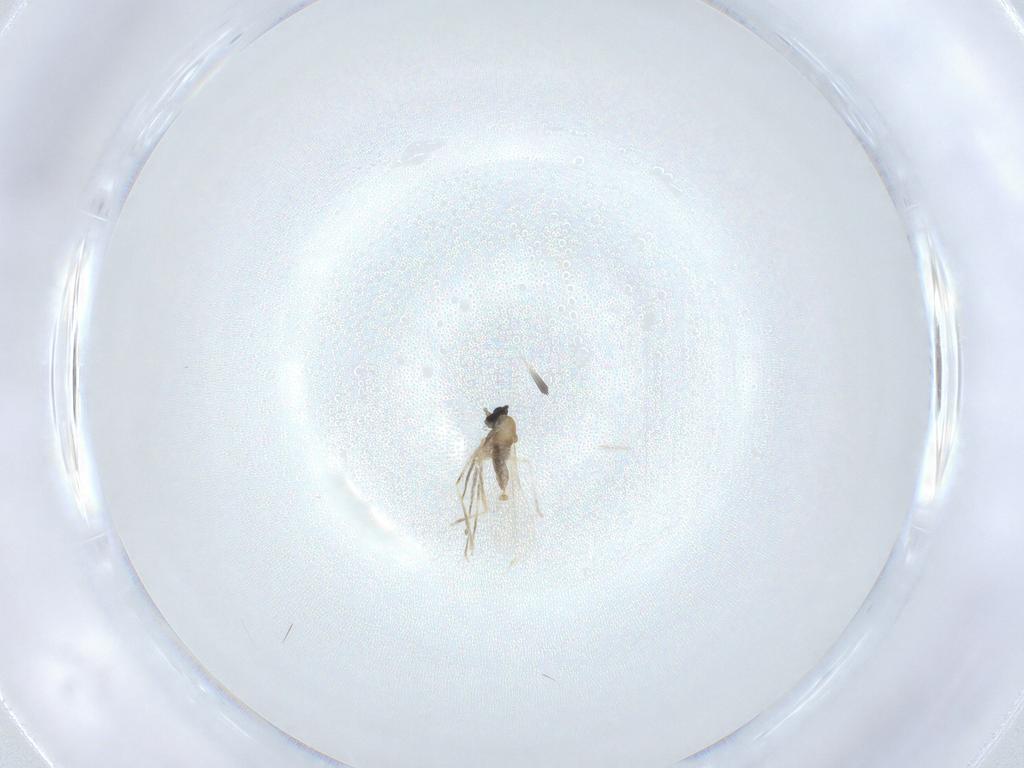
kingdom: Animalia
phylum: Arthropoda
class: Insecta
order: Diptera
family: Cecidomyiidae
